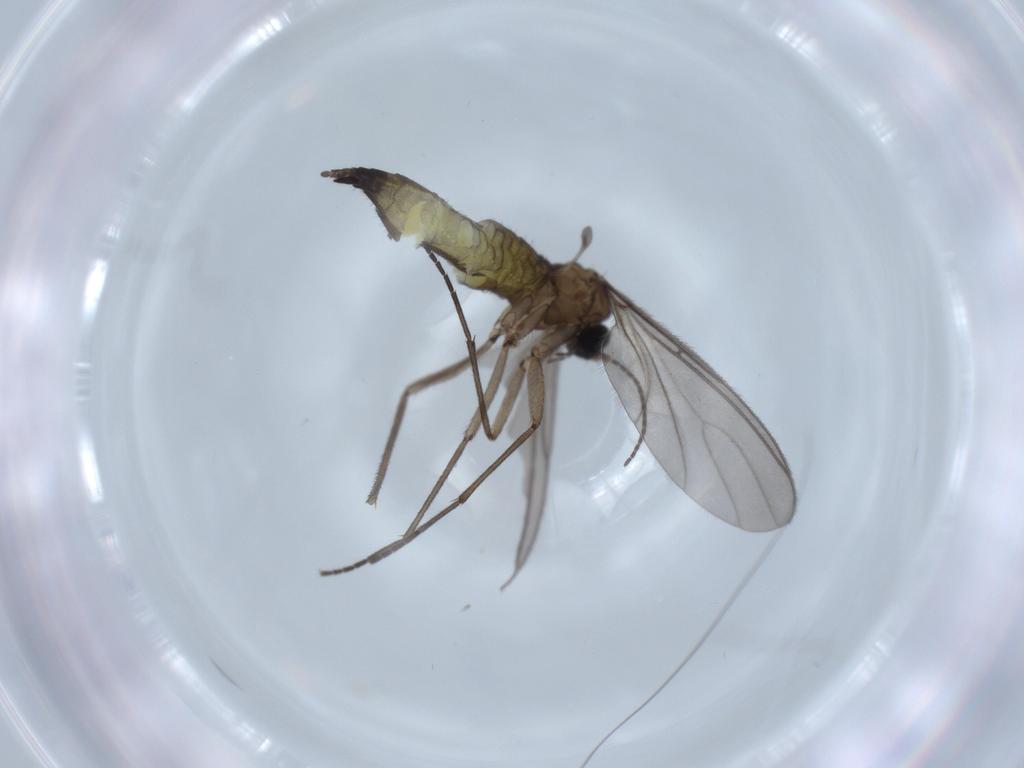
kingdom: Animalia
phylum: Arthropoda
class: Insecta
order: Diptera
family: Sciaridae
